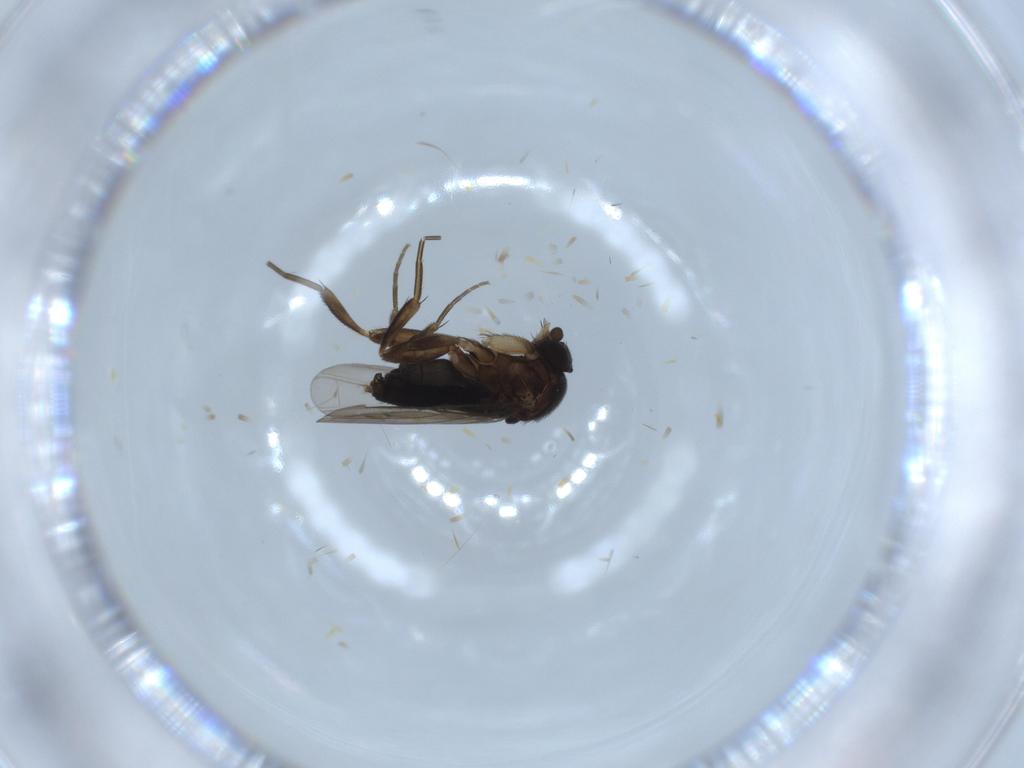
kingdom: Animalia
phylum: Arthropoda
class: Insecta
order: Diptera
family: Phoridae
